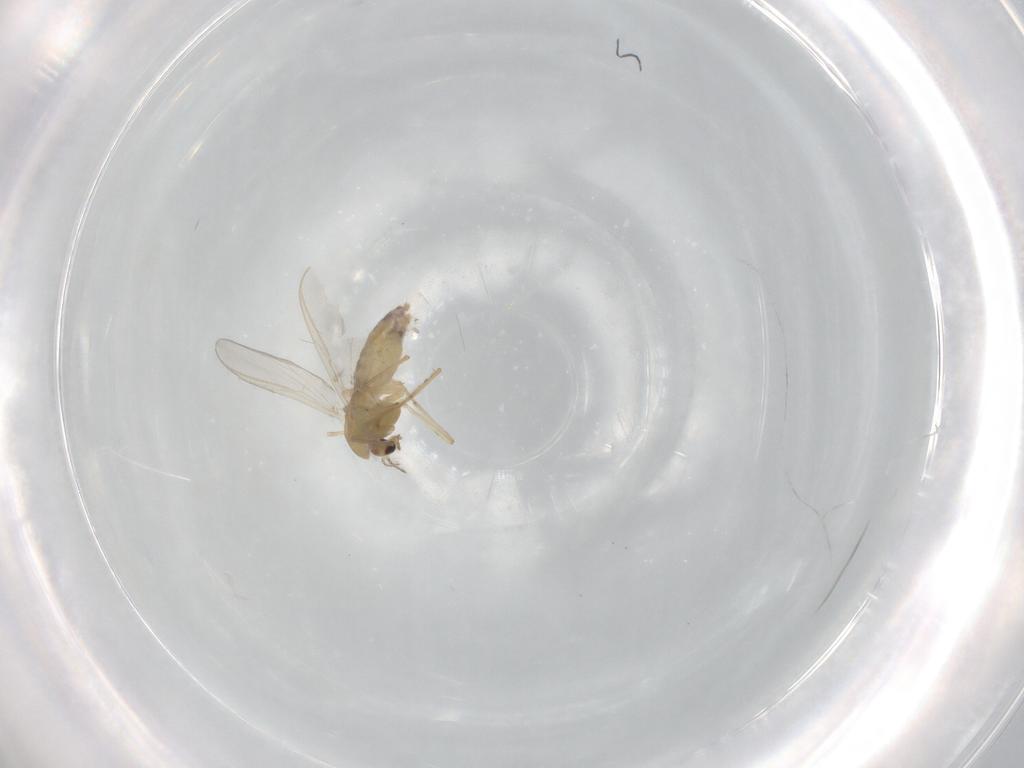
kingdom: Animalia
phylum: Arthropoda
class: Insecta
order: Diptera
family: Chironomidae
